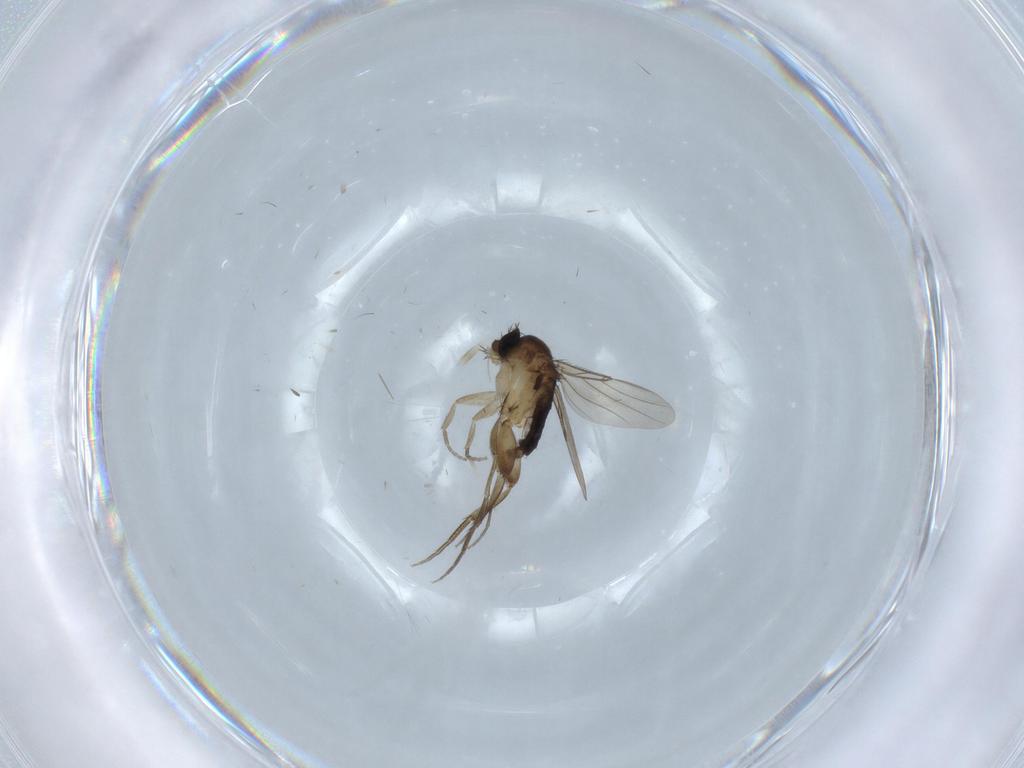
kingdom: Animalia
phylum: Arthropoda
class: Insecta
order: Diptera
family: Phoridae
